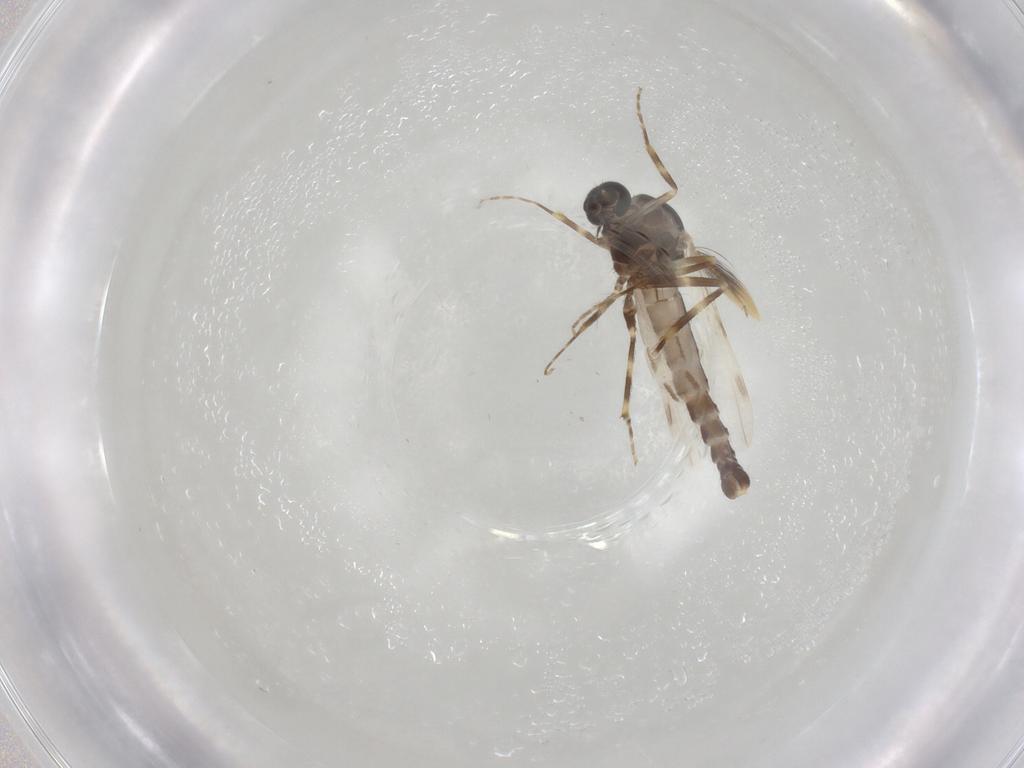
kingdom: Animalia
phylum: Arthropoda
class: Insecta
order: Diptera
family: Ceratopogonidae
